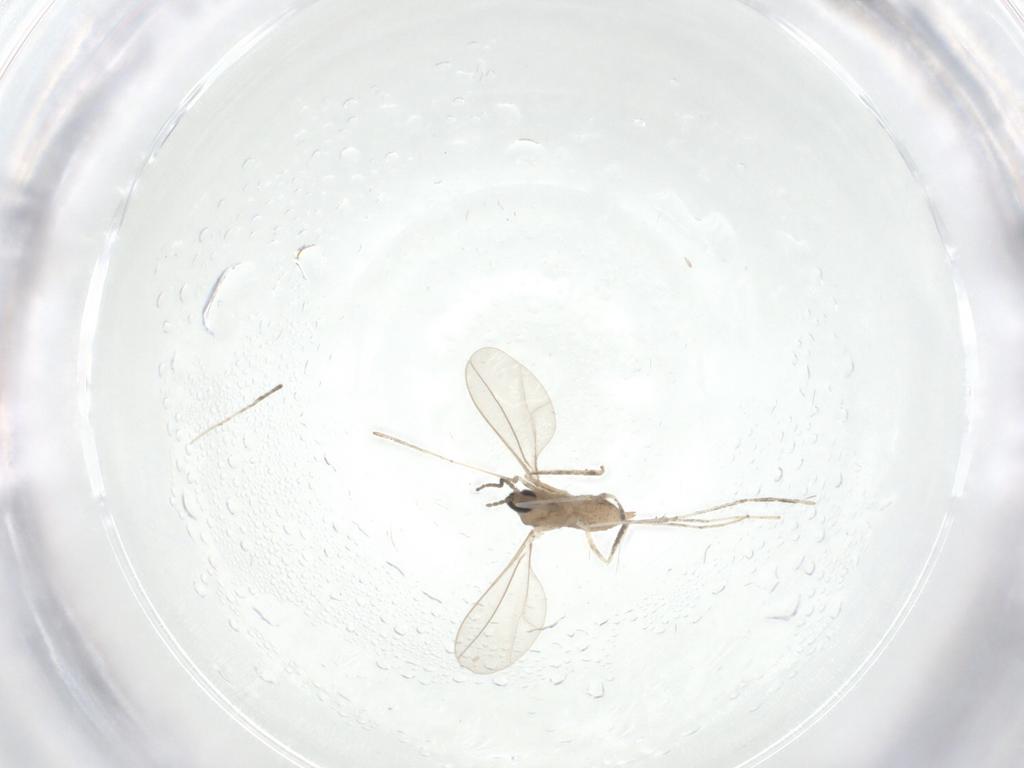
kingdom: Animalia
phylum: Arthropoda
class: Insecta
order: Diptera
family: Cecidomyiidae
